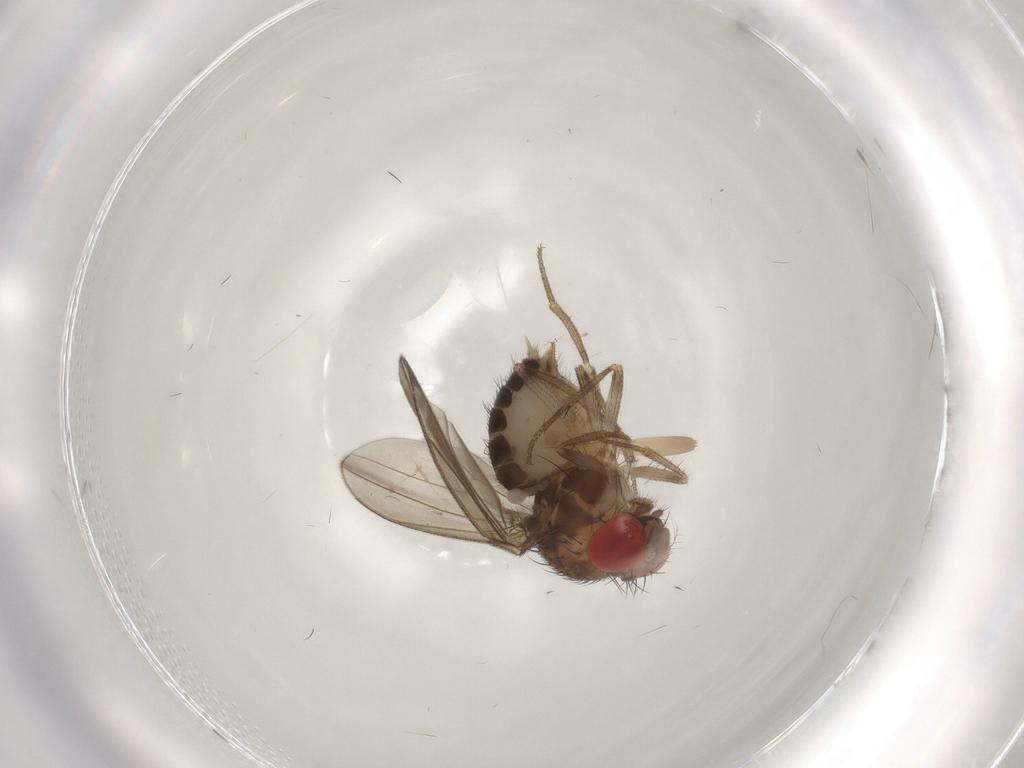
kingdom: Animalia
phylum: Arthropoda
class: Insecta
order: Diptera
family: Drosophilidae
